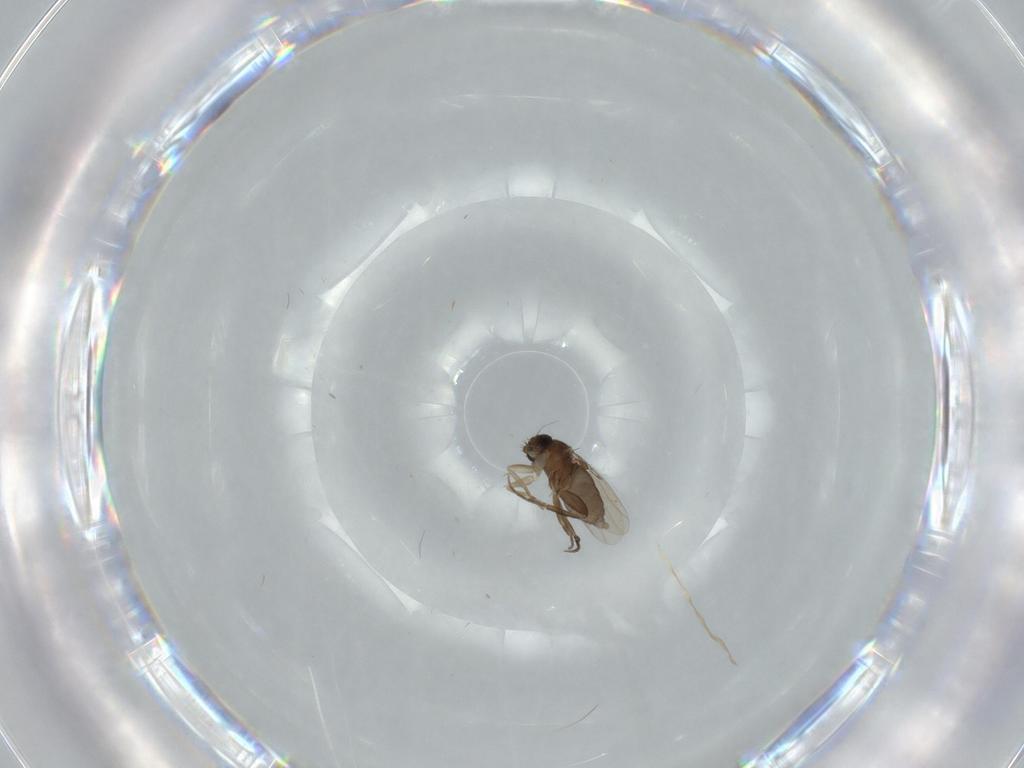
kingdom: Animalia
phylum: Arthropoda
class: Insecta
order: Diptera
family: Phoridae
